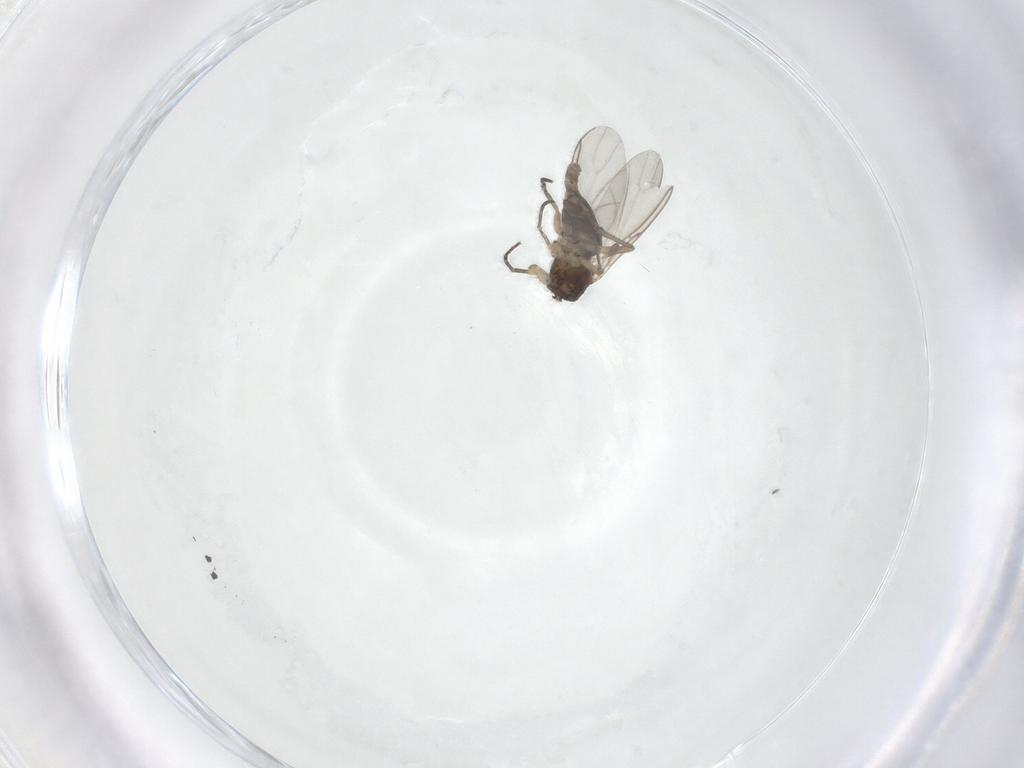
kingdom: Animalia
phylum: Arthropoda
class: Insecta
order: Diptera
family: Sciaridae
